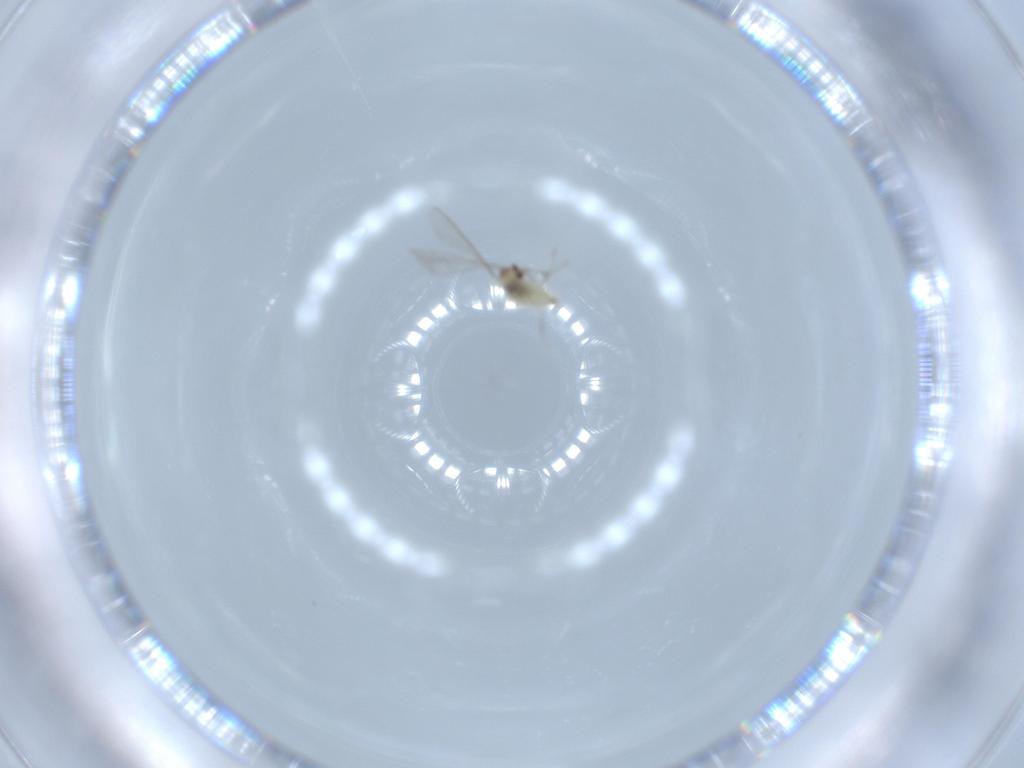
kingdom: Animalia
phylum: Arthropoda
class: Insecta
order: Diptera
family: Cecidomyiidae
